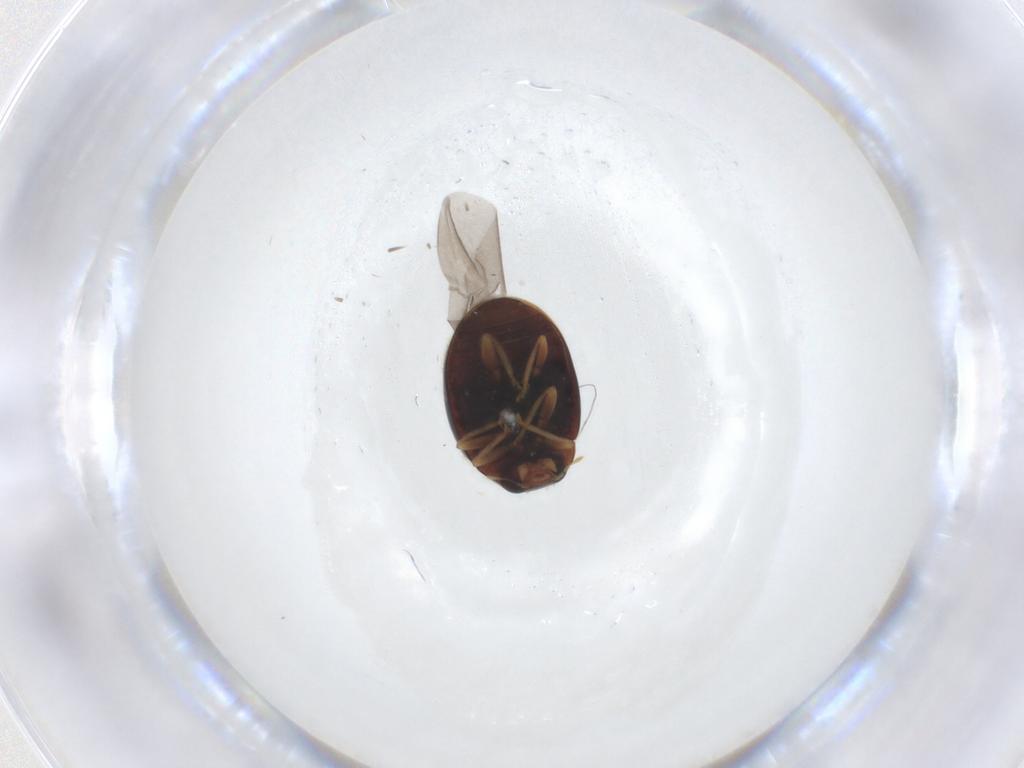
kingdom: Animalia
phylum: Arthropoda
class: Insecta
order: Coleoptera
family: Coccinellidae
